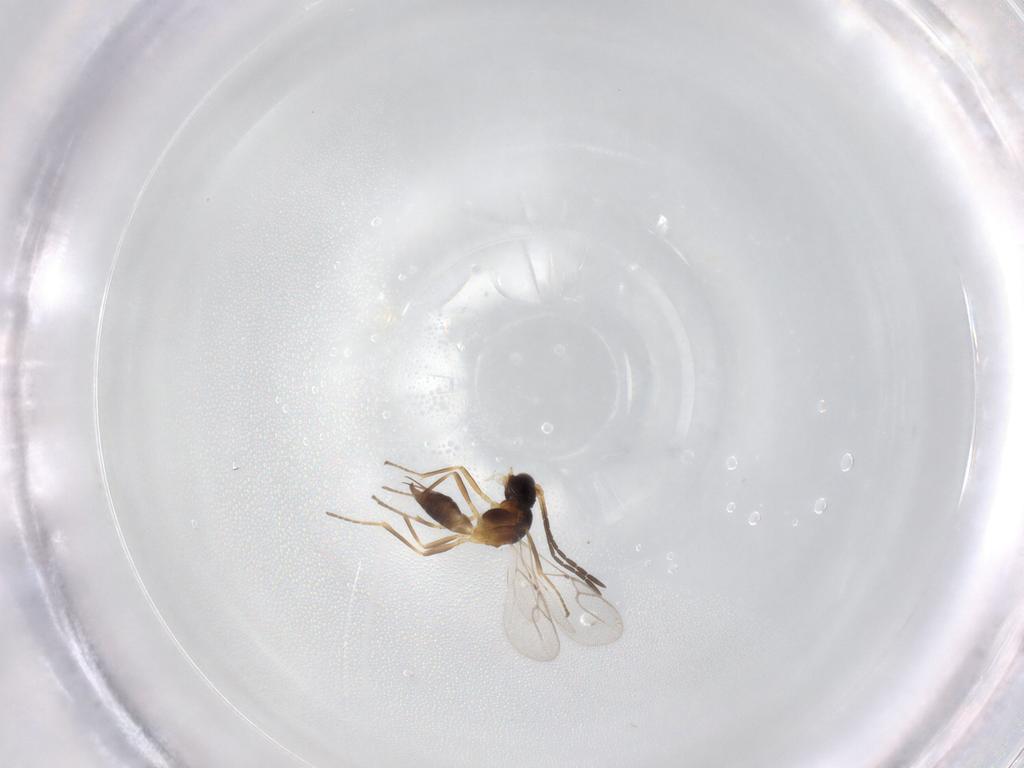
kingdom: Animalia
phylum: Arthropoda
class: Insecta
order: Hymenoptera
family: Braconidae
